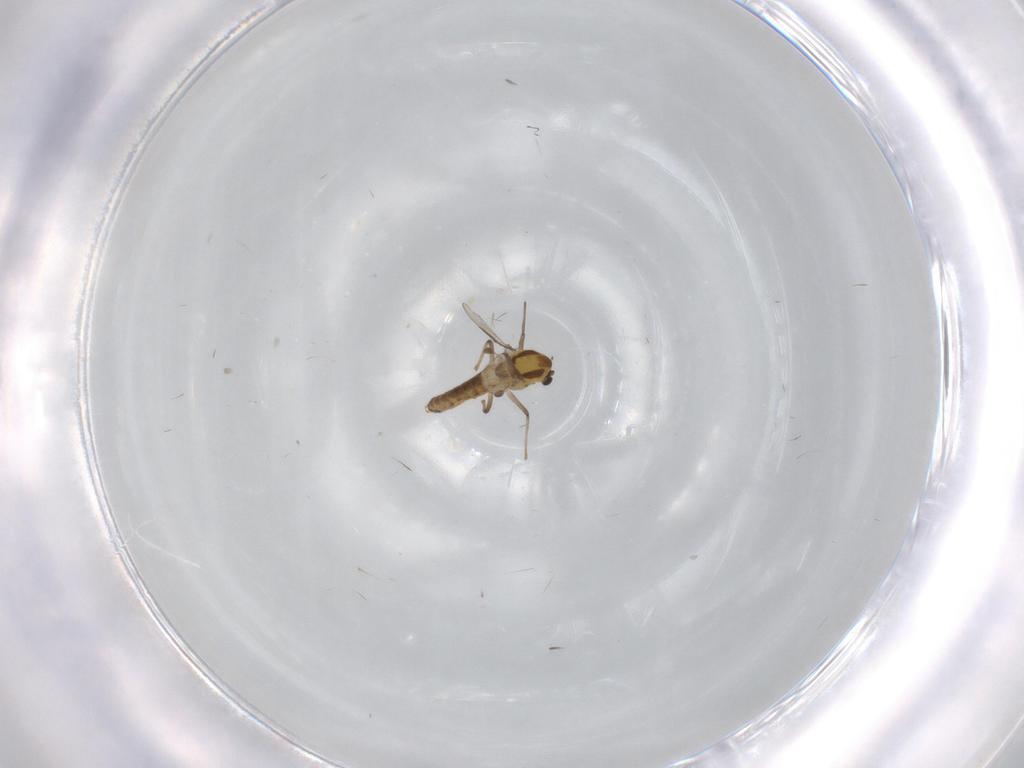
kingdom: Animalia
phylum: Arthropoda
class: Insecta
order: Diptera
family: Chironomidae
